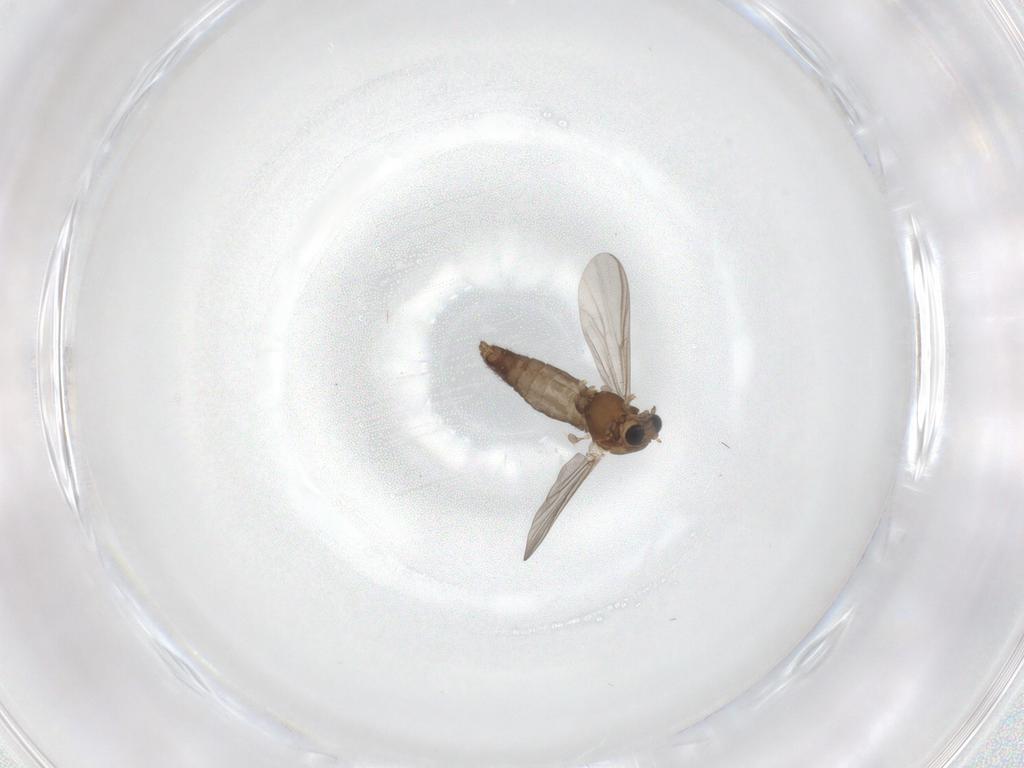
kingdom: Animalia
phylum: Arthropoda
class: Insecta
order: Diptera
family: Chironomidae
